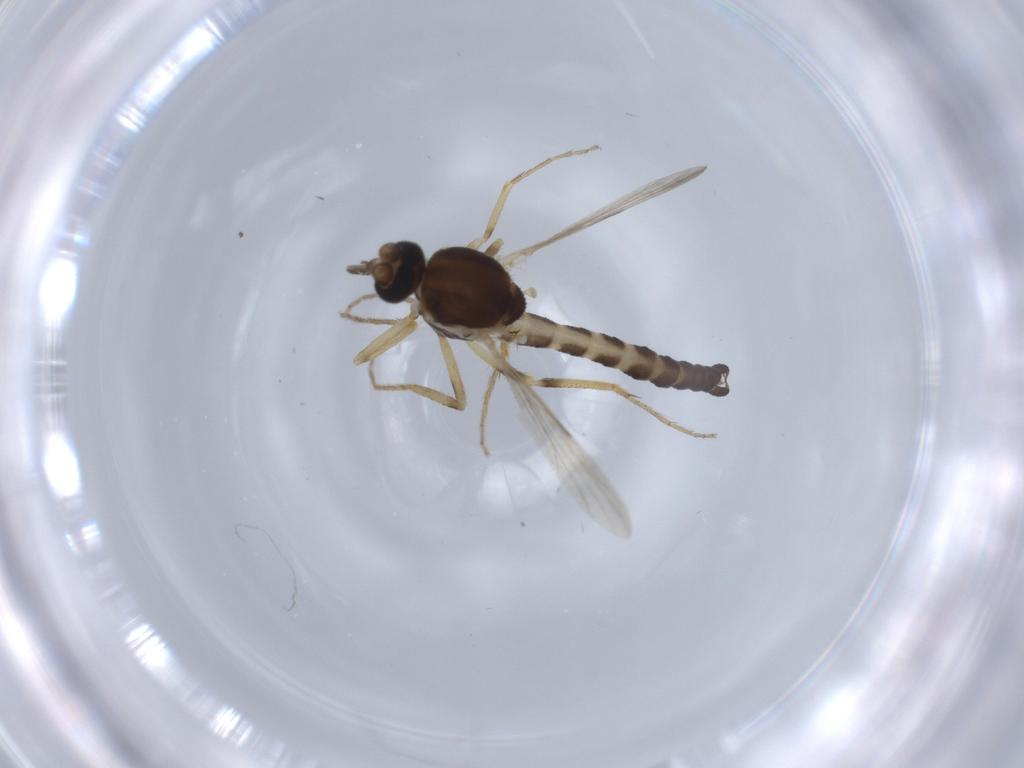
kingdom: Animalia
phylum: Arthropoda
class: Insecta
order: Diptera
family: Ceratopogonidae
